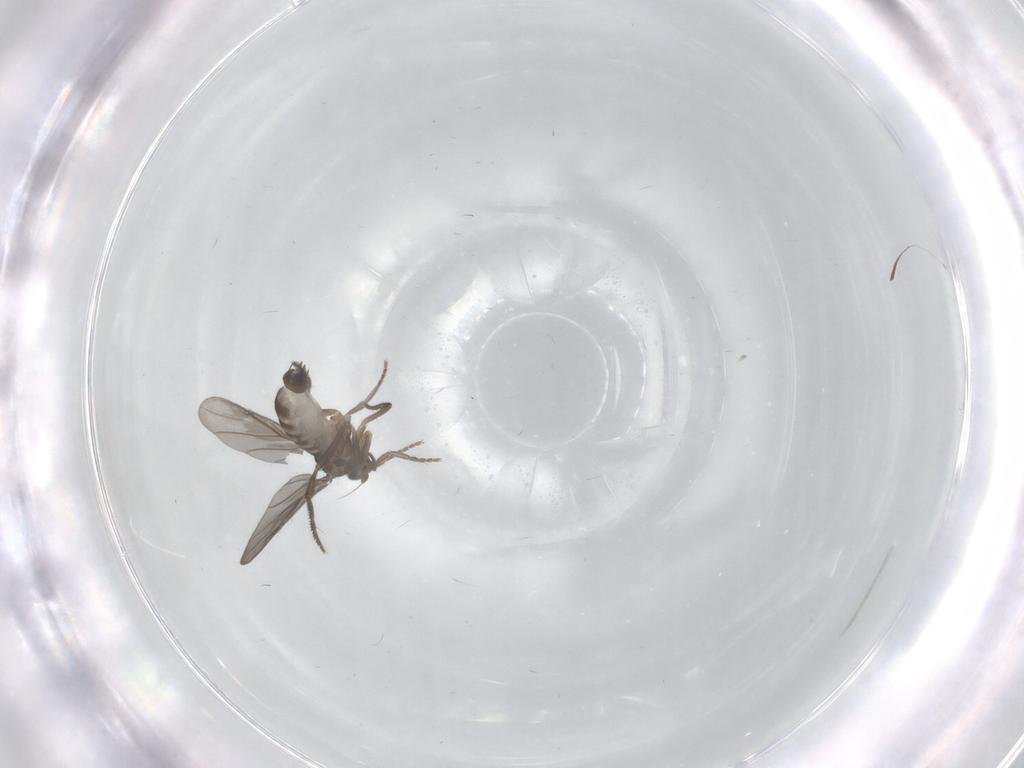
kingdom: Animalia
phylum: Arthropoda
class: Insecta
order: Diptera
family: Phoridae
